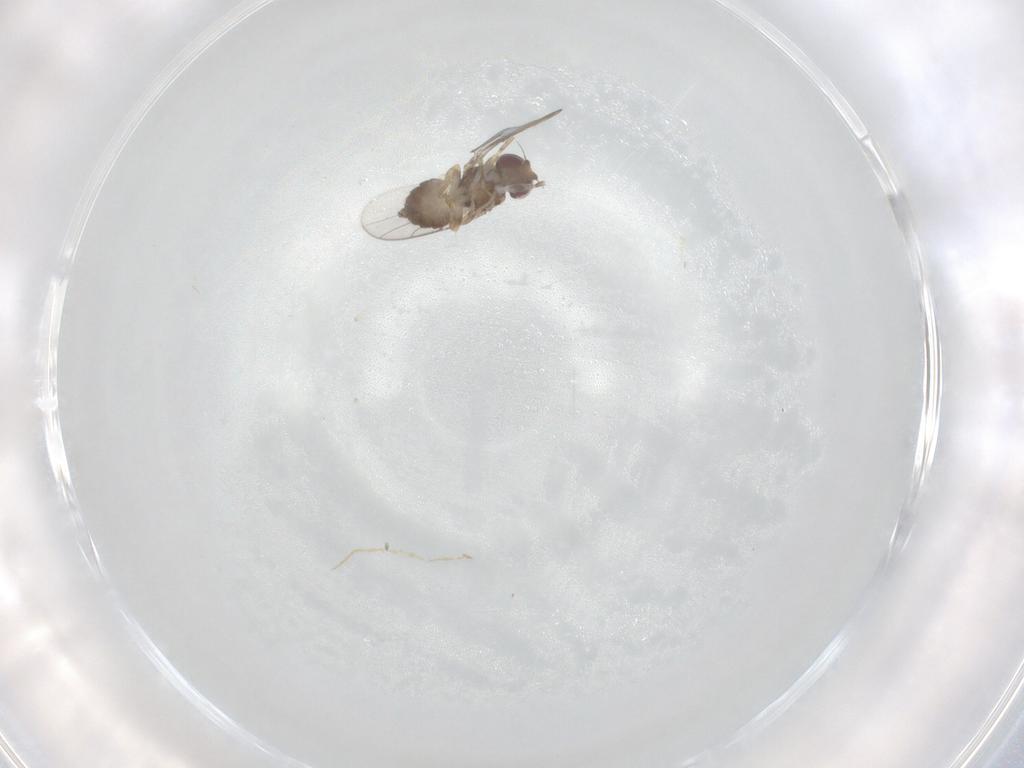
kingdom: Animalia
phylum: Arthropoda
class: Insecta
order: Diptera
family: Chloropidae
